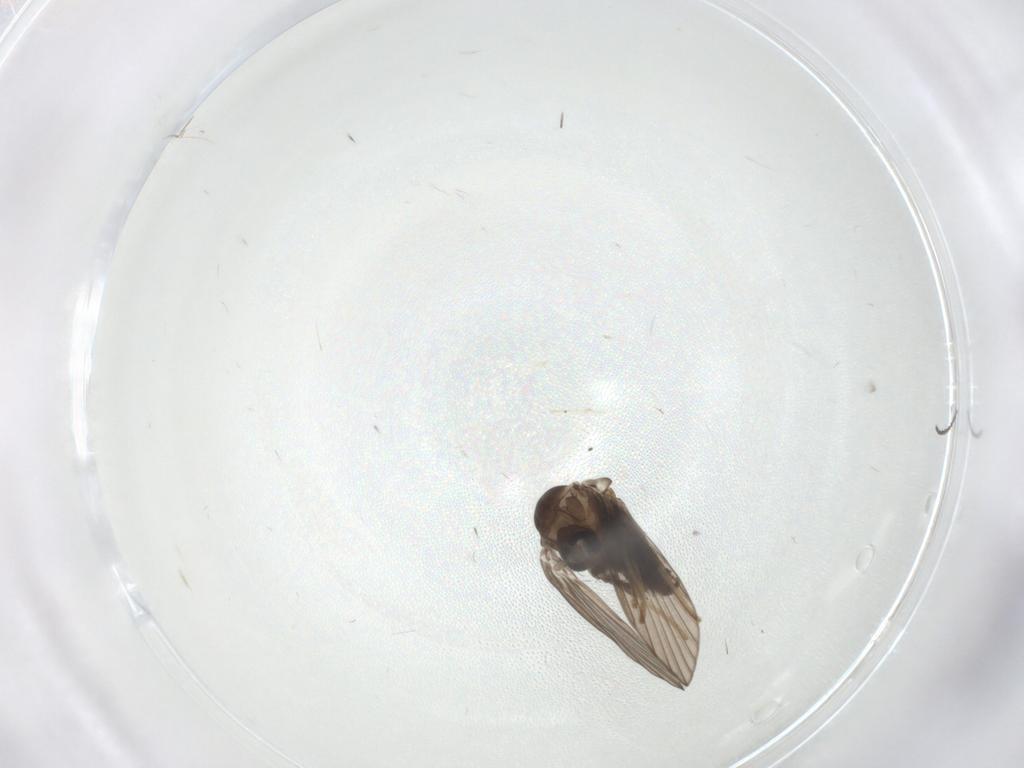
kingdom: Animalia
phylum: Arthropoda
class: Insecta
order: Diptera
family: Psychodidae
